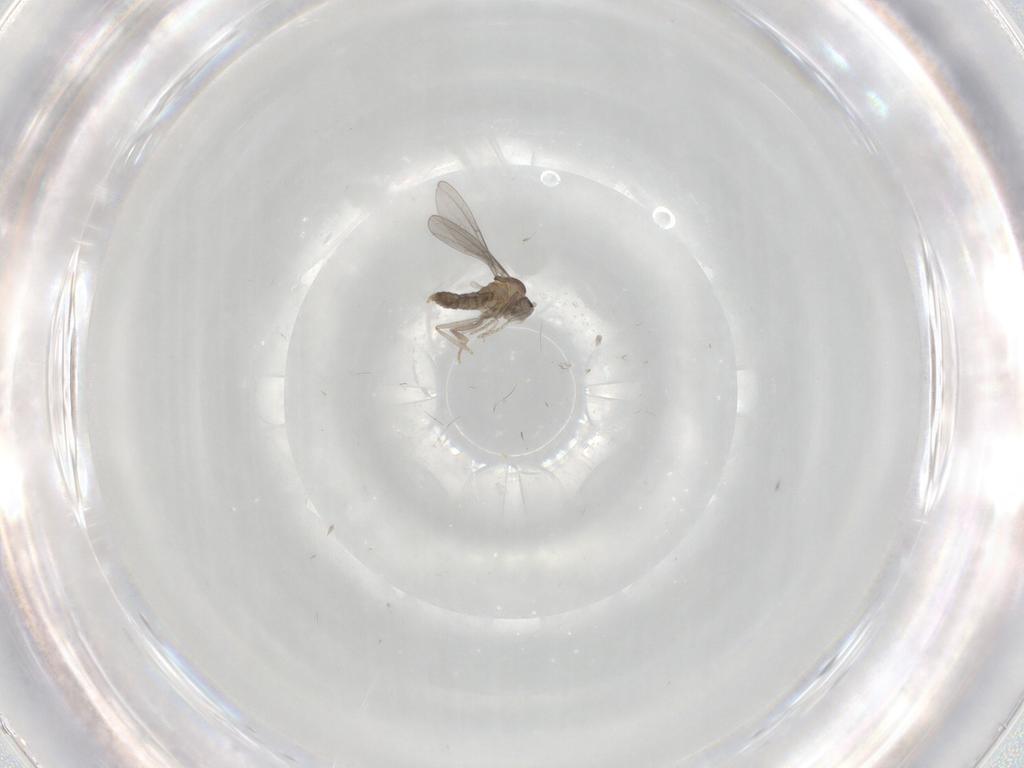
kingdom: Animalia
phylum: Arthropoda
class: Insecta
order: Diptera
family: Cecidomyiidae
